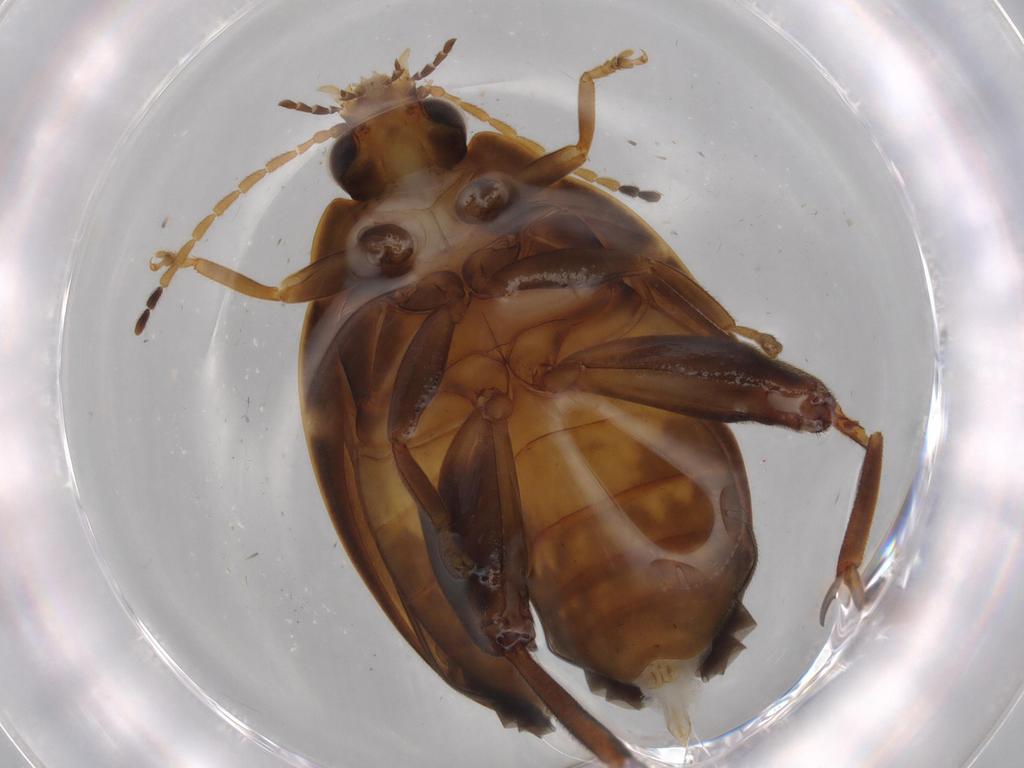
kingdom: Animalia
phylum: Arthropoda
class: Insecta
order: Coleoptera
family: Scirtidae
